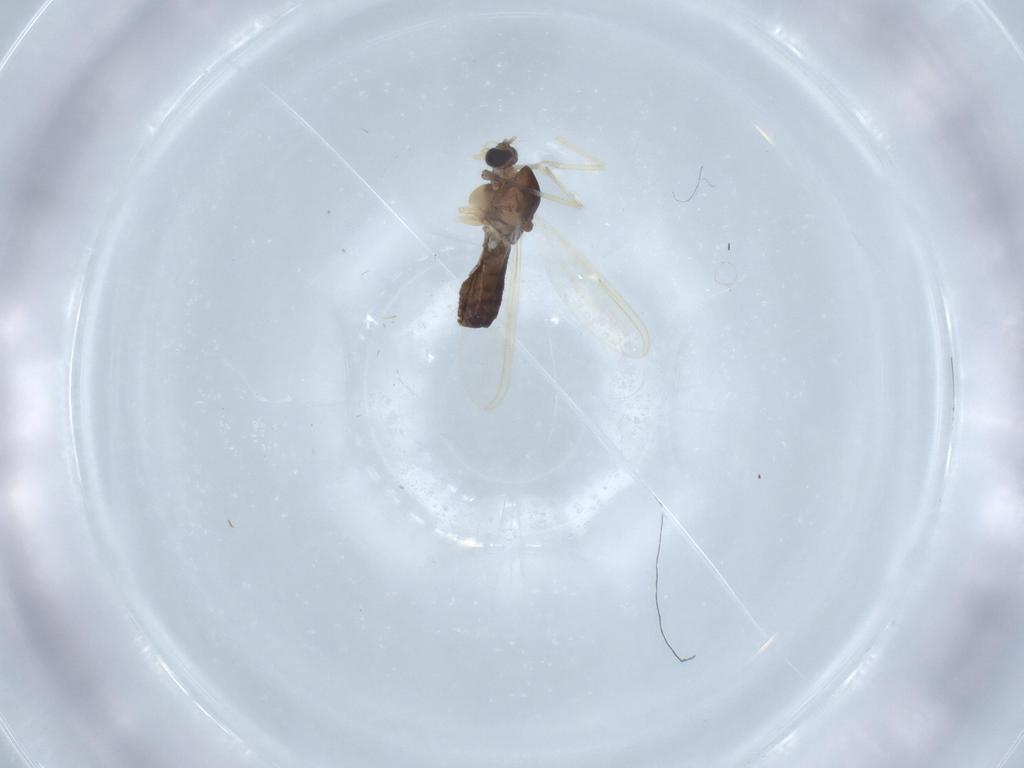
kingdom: Animalia
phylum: Arthropoda
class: Insecta
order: Diptera
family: Chironomidae
